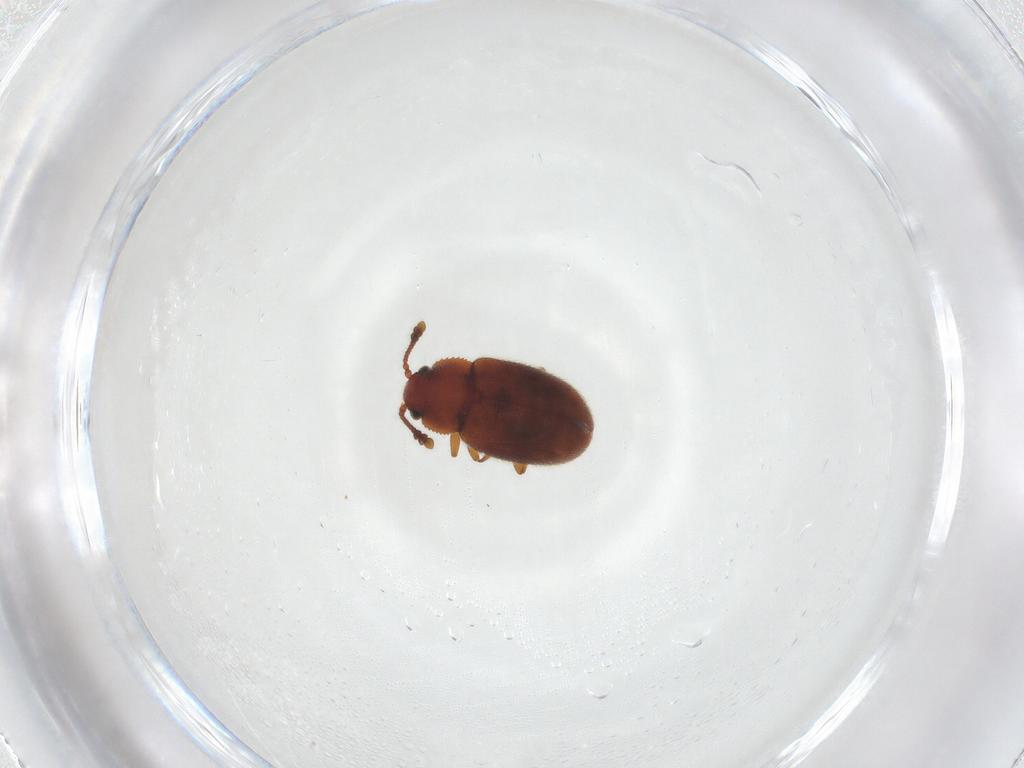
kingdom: Animalia
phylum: Arthropoda
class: Insecta
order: Coleoptera
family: Cryptophagidae
